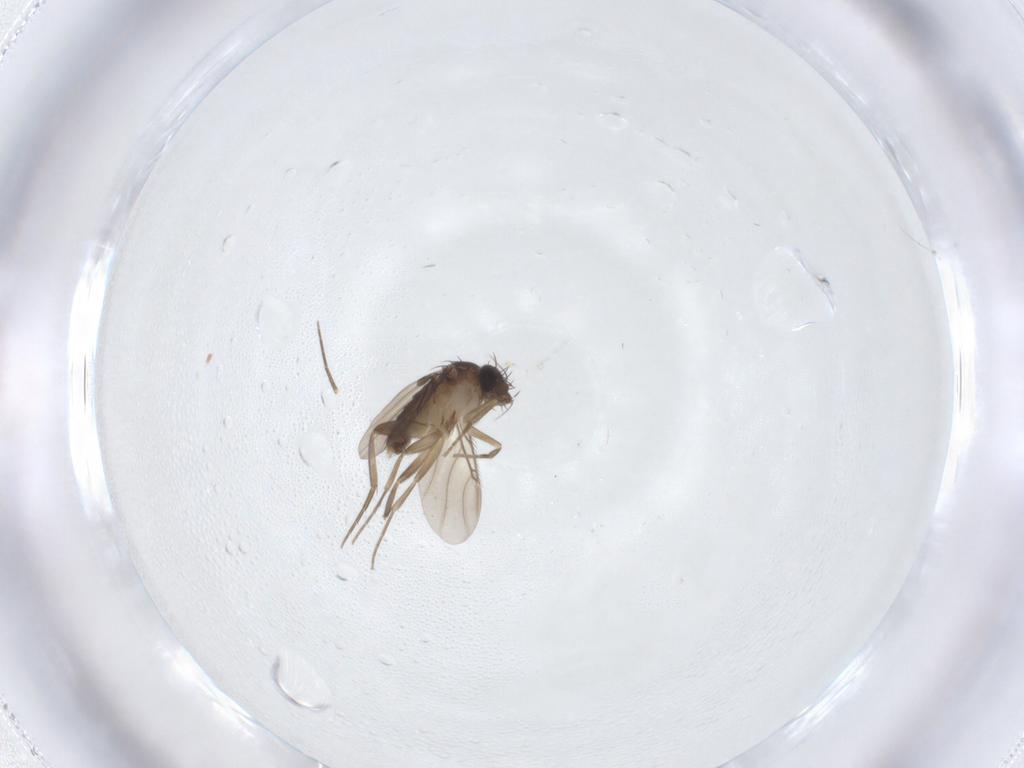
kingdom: Animalia
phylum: Arthropoda
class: Insecta
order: Diptera
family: Phoridae
